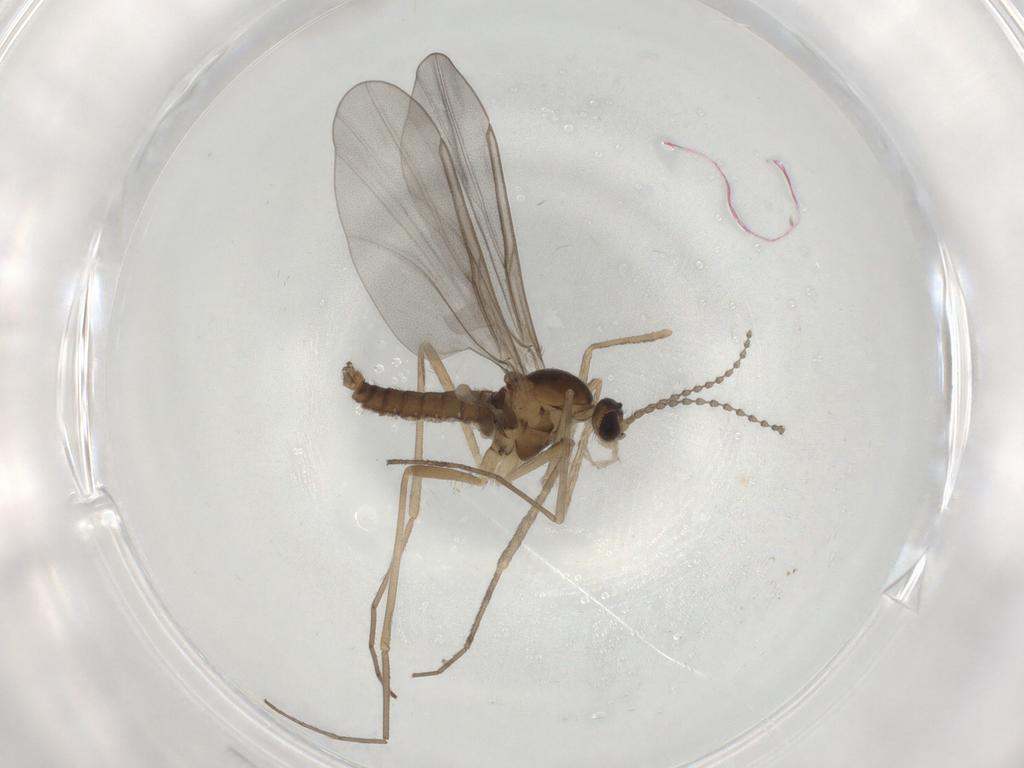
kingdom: Animalia
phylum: Arthropoda
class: Insecta
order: Diptera
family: Cecidomyiidae
